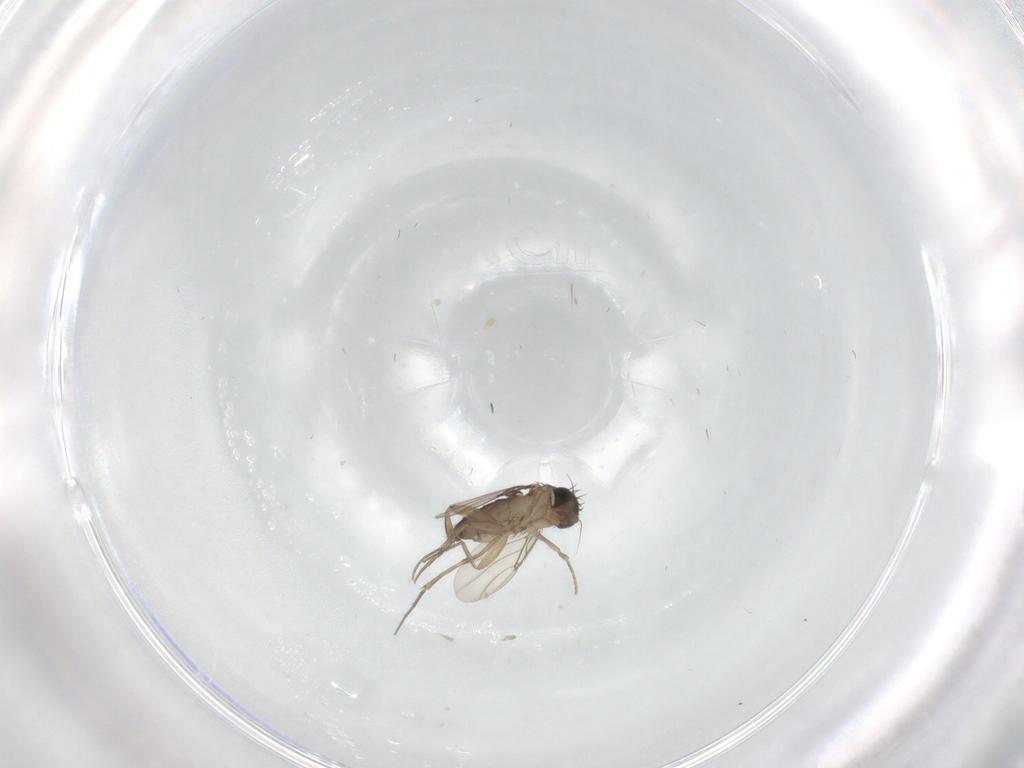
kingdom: Animalia
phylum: Arthropoda
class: Insecta
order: Diptera
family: Phoridae
